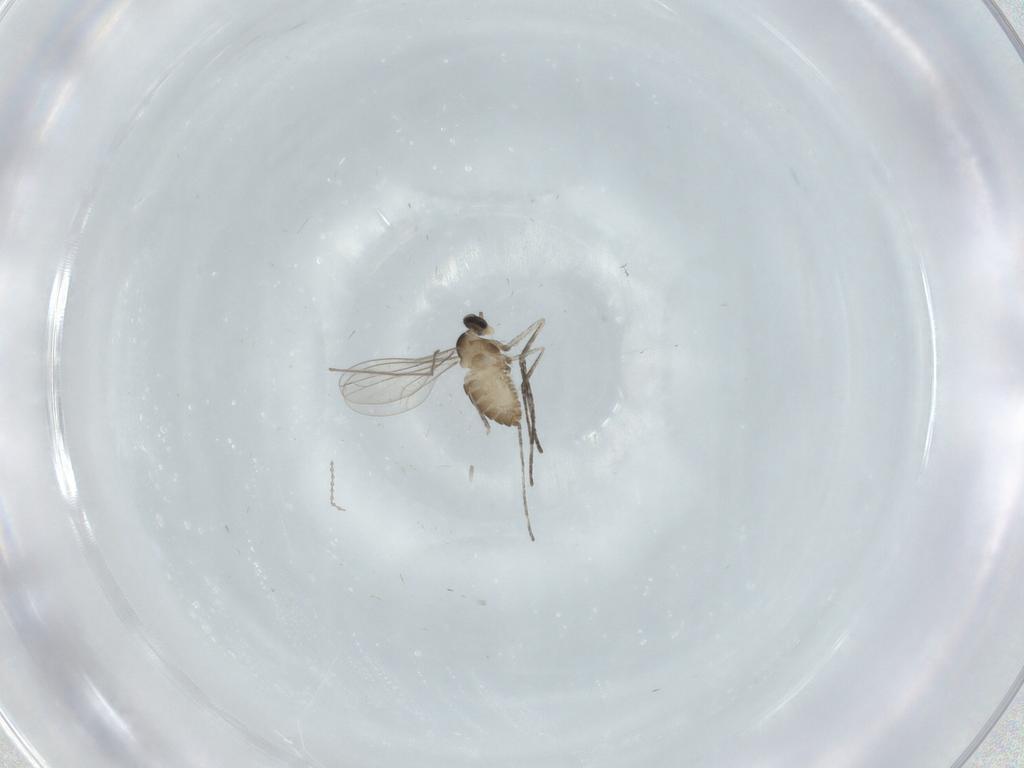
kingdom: Animalia
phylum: Arthropoda
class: Insecta
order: Diptera
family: Cecidomyiidae
